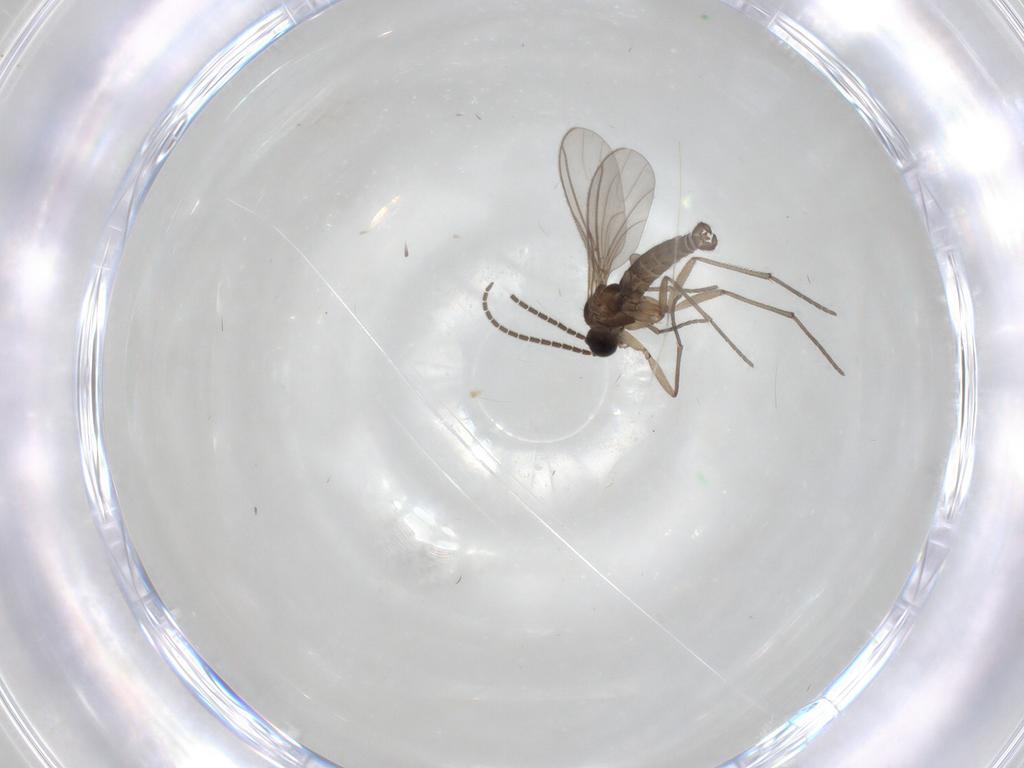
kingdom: Animalia
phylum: Arthropoda
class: Insecta
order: Diptera
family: Sciaridae
